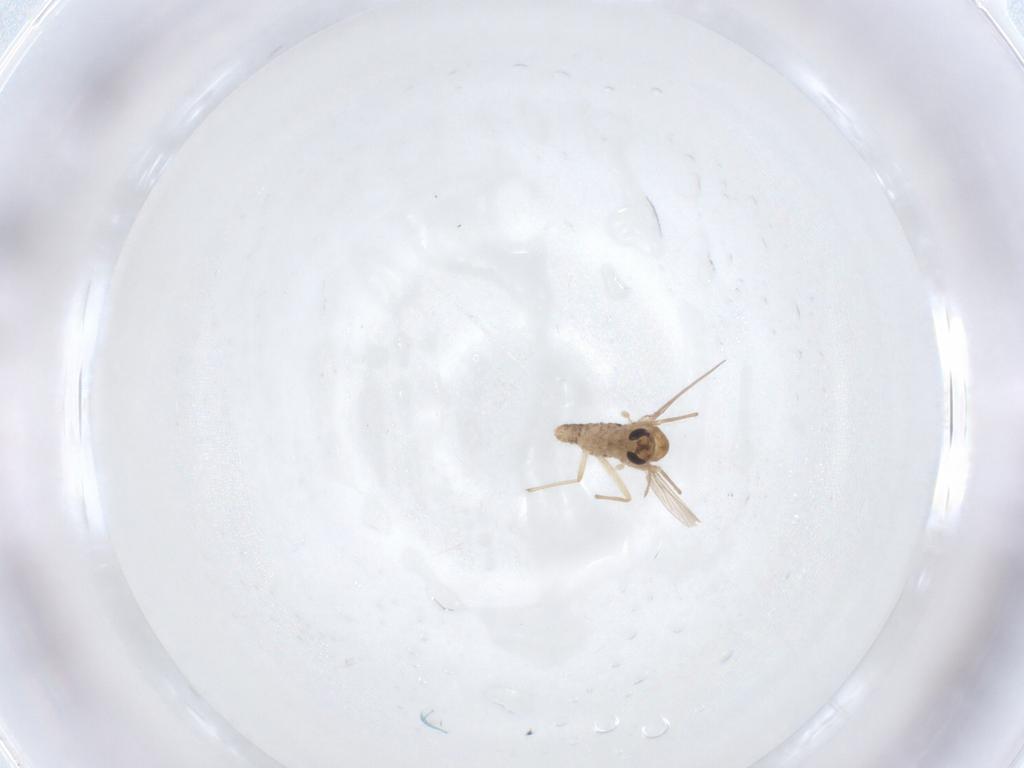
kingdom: Animalia
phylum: Arthropoda
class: Insecta
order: Diptera
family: Chironomidae
